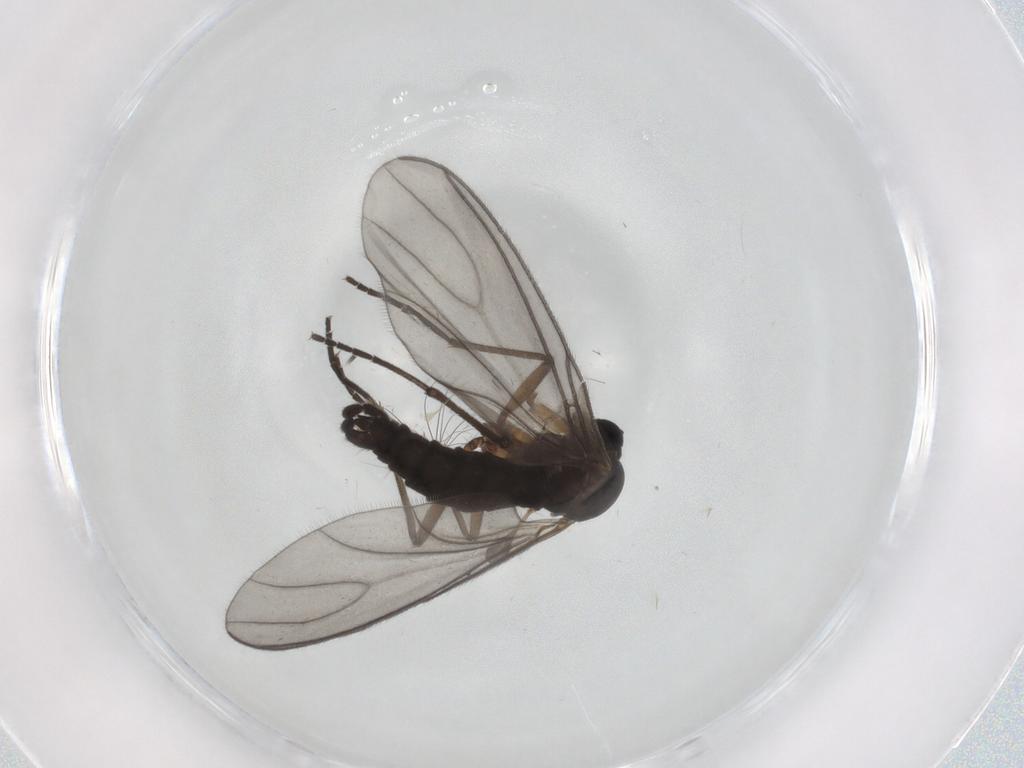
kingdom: Animalia
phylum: Arthropoda
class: Insecta
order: Diptera
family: Sciaridae
